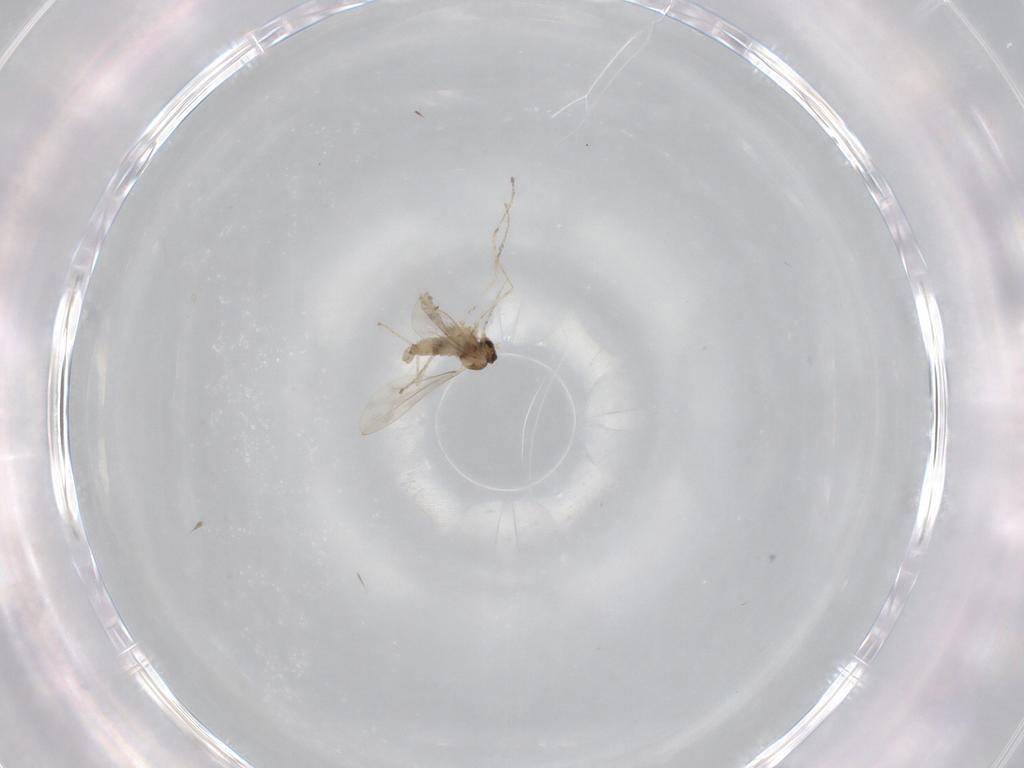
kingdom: Animalia
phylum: Arthropoda
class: Insecta
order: Diptera
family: Cecidomyiidae
